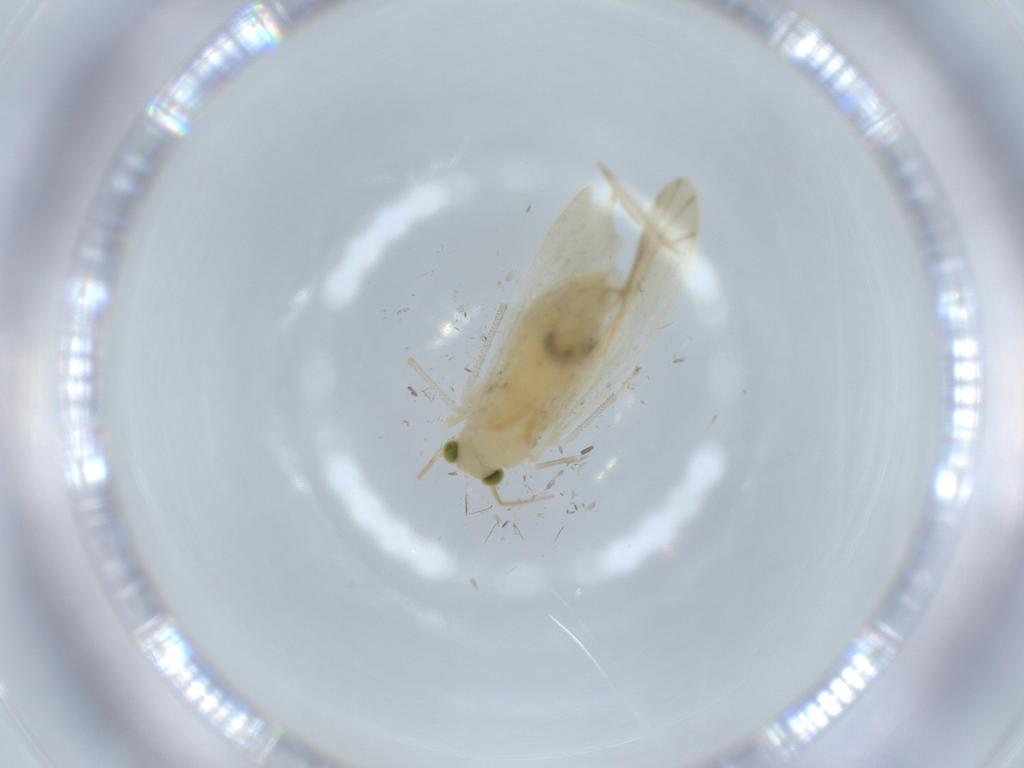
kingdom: Animalia
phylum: Arthropoda
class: Insecta
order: Psocodea
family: Caeciliusidae
